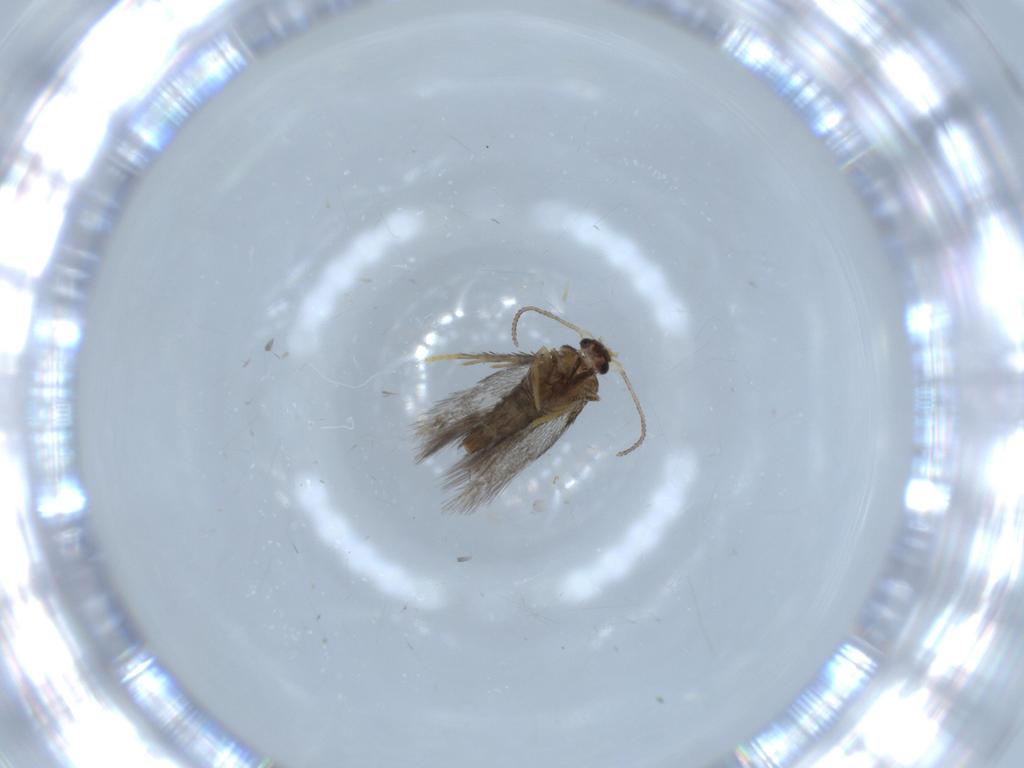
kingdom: Animalia
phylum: Arthropoda
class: Insecta
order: Lepidoptera
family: Nepticulidae
